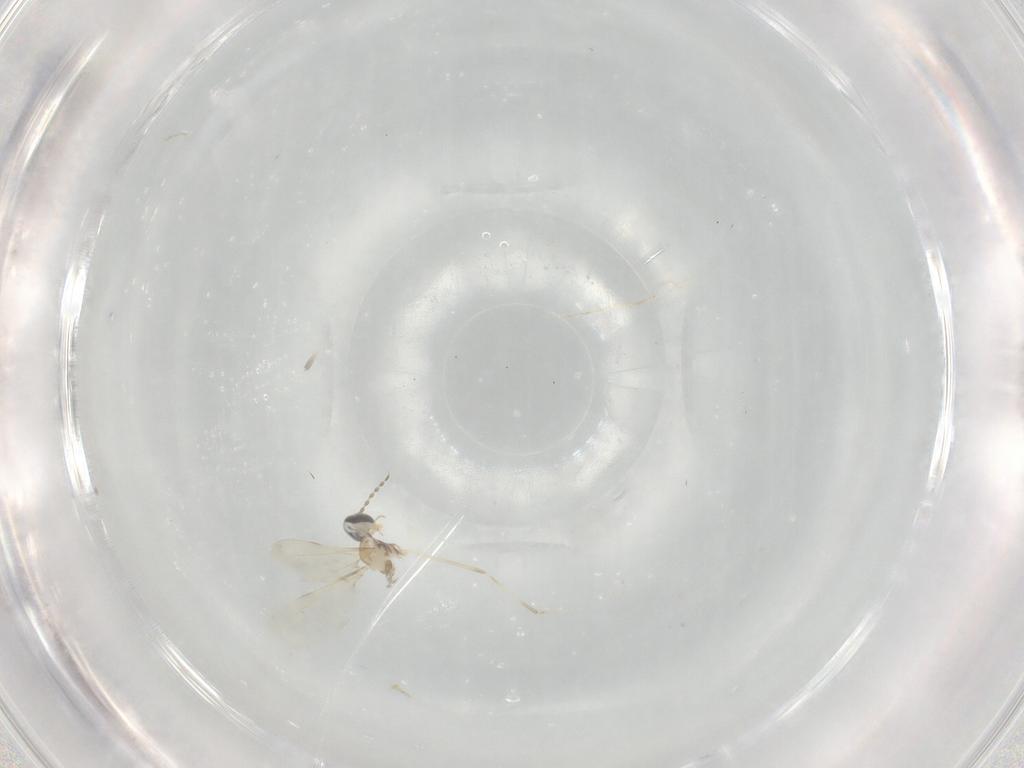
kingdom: Animalia
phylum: Arthropoda
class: Insecta
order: Diptera
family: Cecidomyiidae
